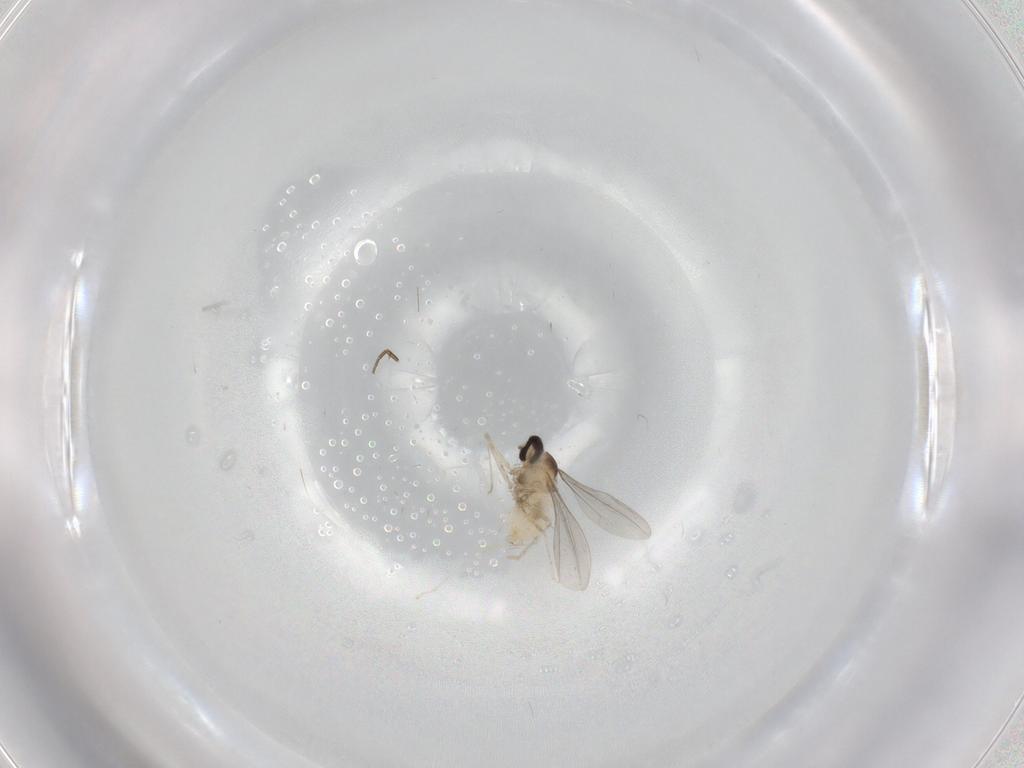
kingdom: Animalia
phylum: Arthropoda
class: Insecta
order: Diptera
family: Cecidomyiidae
